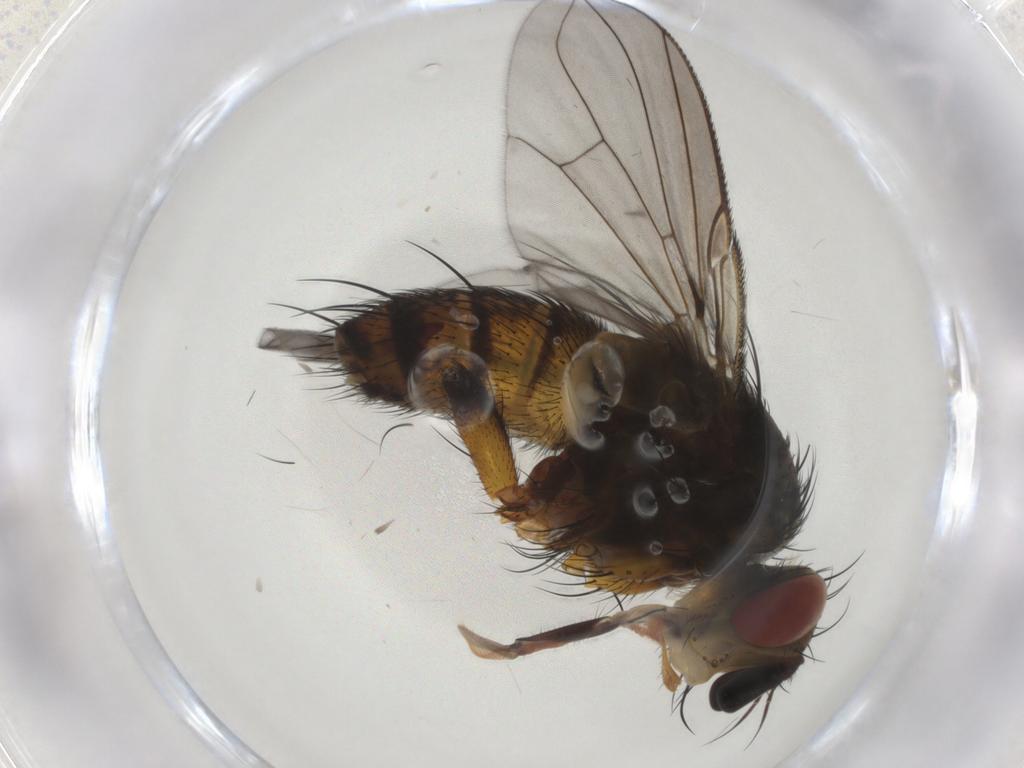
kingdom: Animalia
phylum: Arthropoda
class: Insecta
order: Diptera
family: Tachinidae
